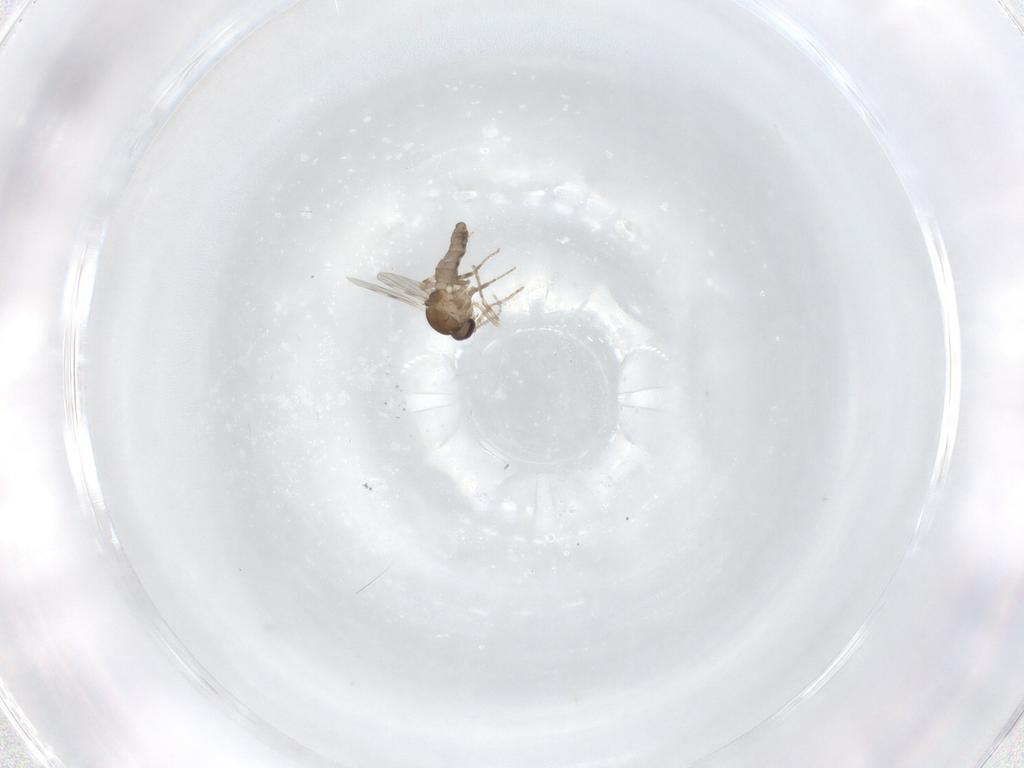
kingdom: Animalia
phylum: Arthropoda
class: Insecta
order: Diptera
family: Ceratopogonidae
